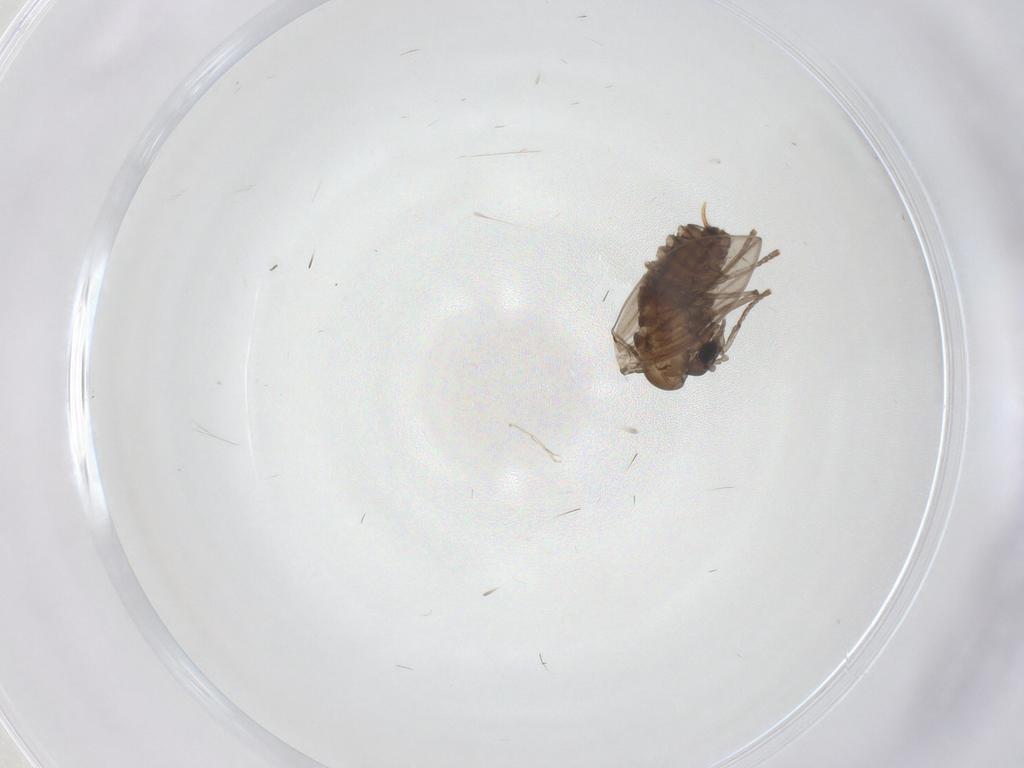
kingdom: Animalia
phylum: Arthropoda
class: Insecta
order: Diptera
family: Psychodidae
